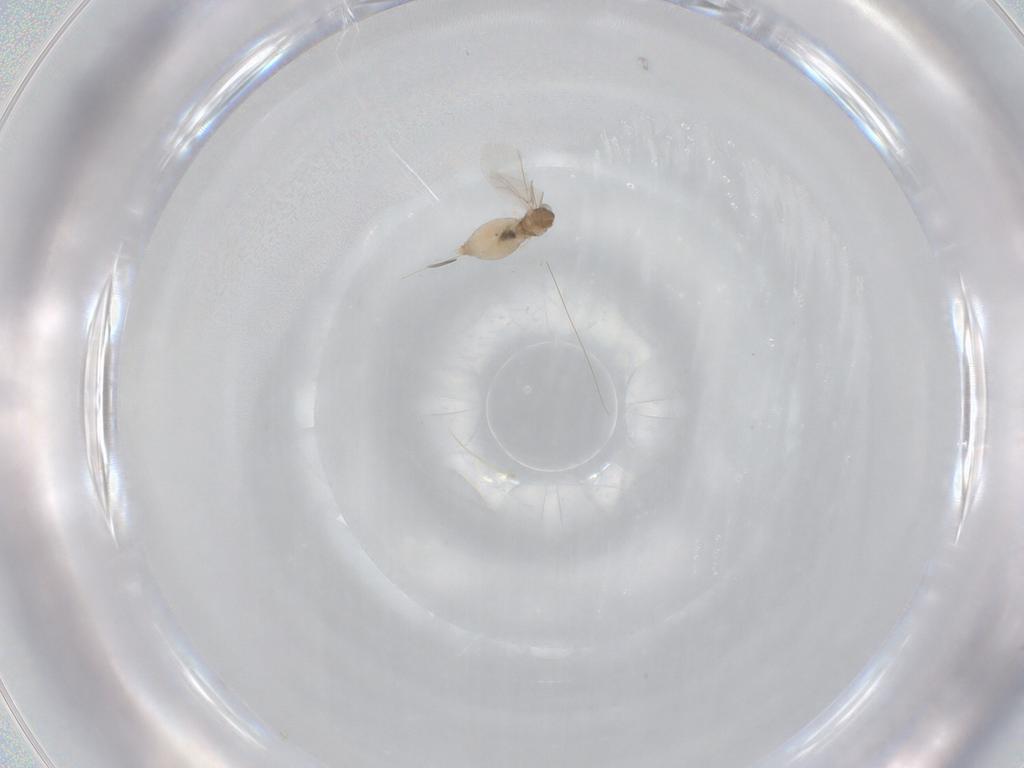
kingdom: Animalia
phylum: Arthropoda
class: Insecta
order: Diptera
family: Cecidomyiidae
